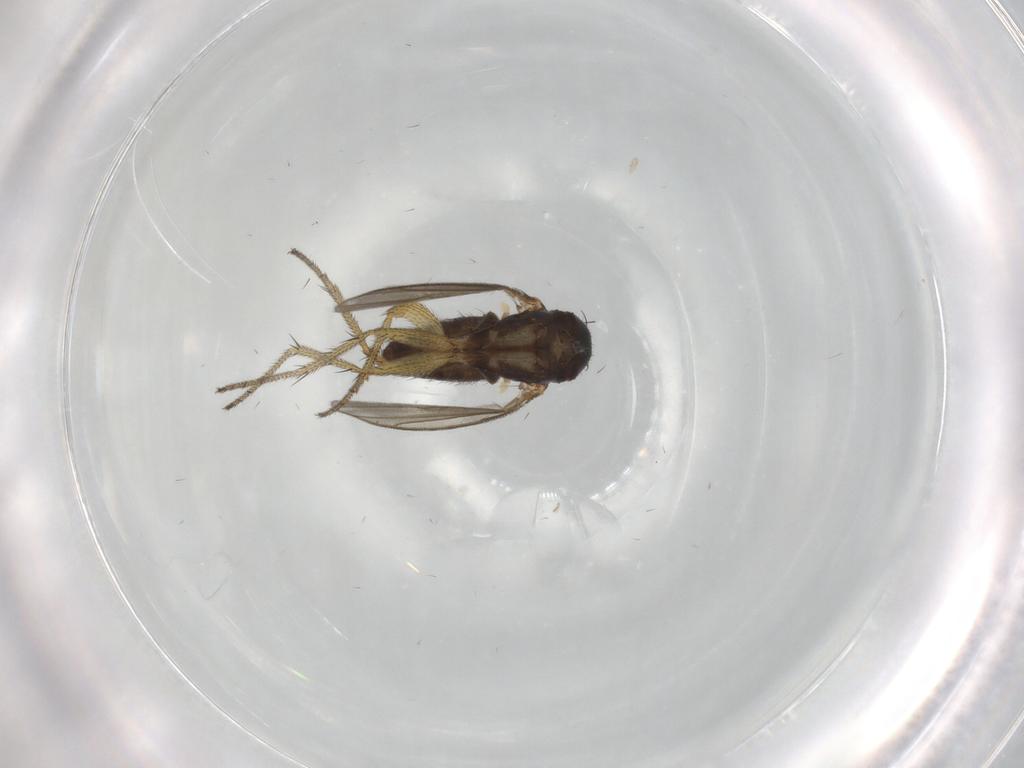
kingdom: Animalia
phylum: Arthropoda
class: Insecta
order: Diptera
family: Dolichopodidae
